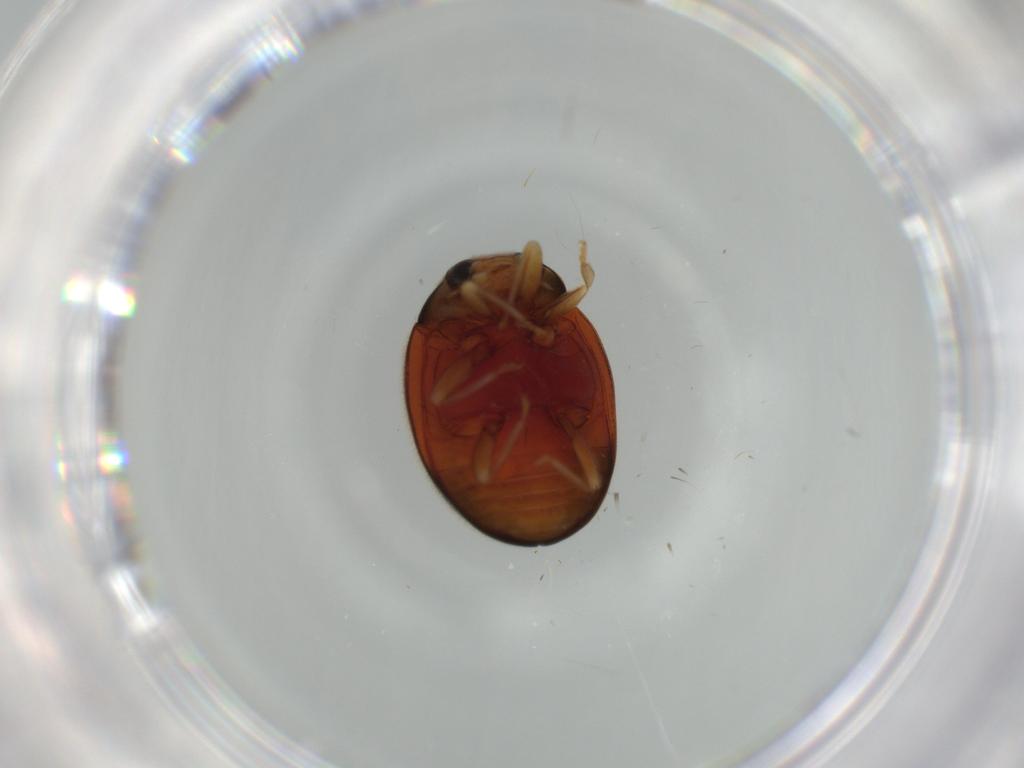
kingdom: Animalia
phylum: Arthropoda
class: Insecta
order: Coleoptera
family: Coccinellidae
